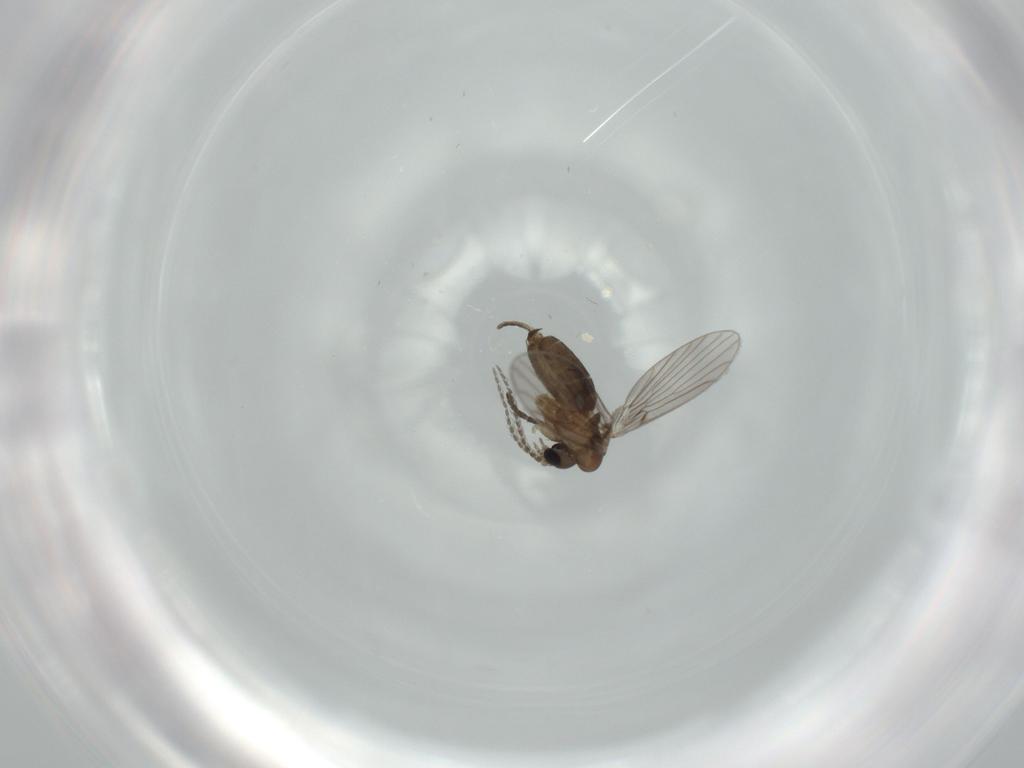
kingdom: Animalia
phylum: Arthropoda
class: Insecta
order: Diptera
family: Psychodidae
